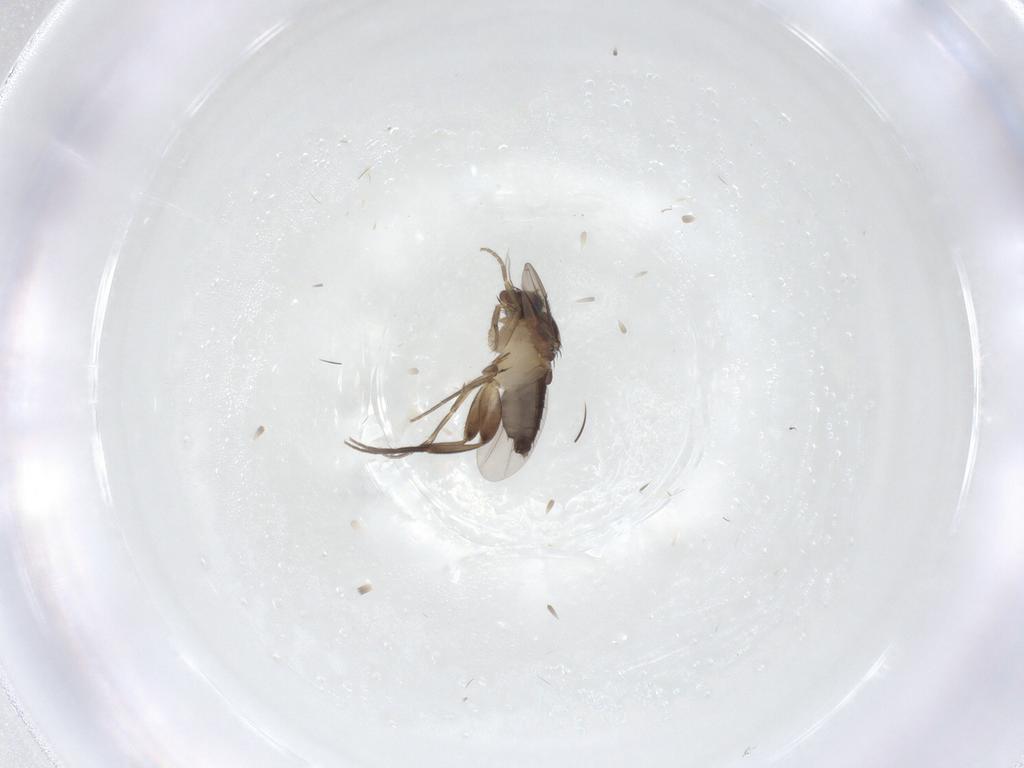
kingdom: Animalia
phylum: Arthropoda
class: Insecta
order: Diptera
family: Phoridae
